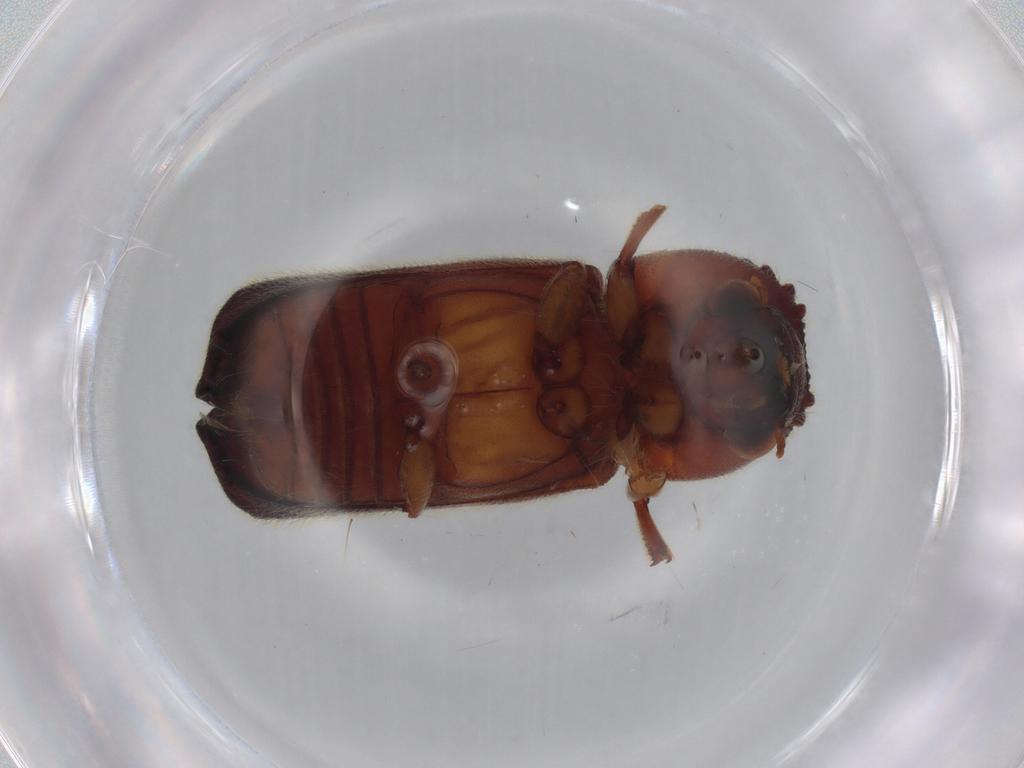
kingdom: Animalia
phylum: Arthropoda
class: Insecta
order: Coleoptera
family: Bostrichidae
